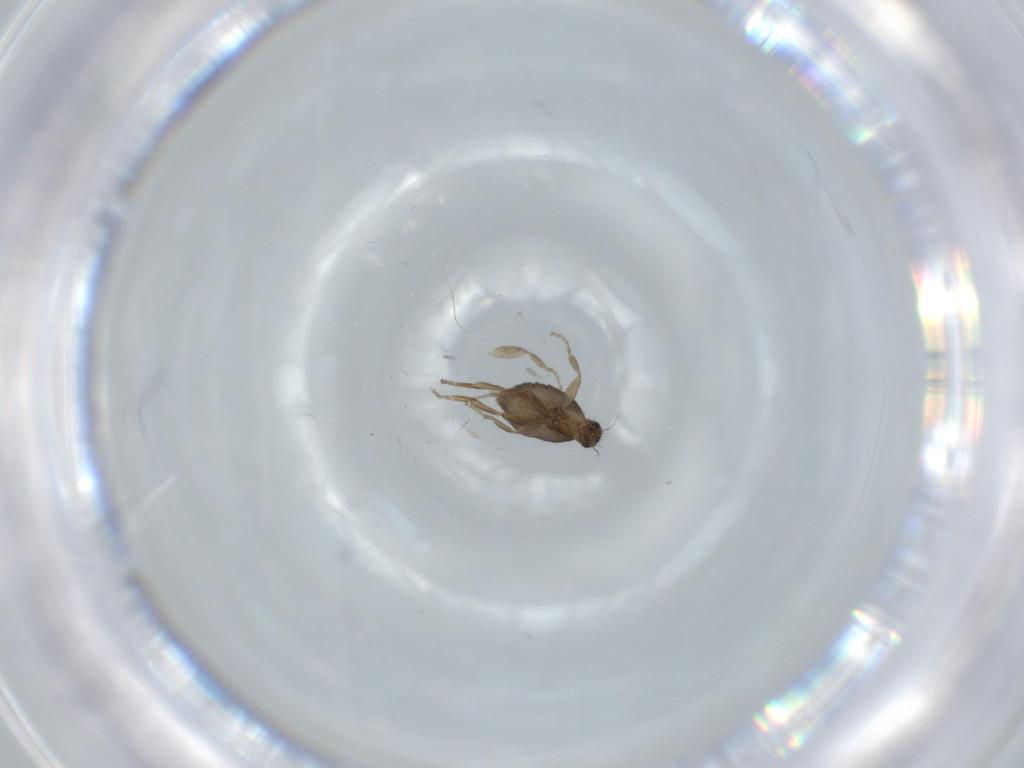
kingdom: Animalia
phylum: Arthropoda
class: Insecta
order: Diptera
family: Phoridae
